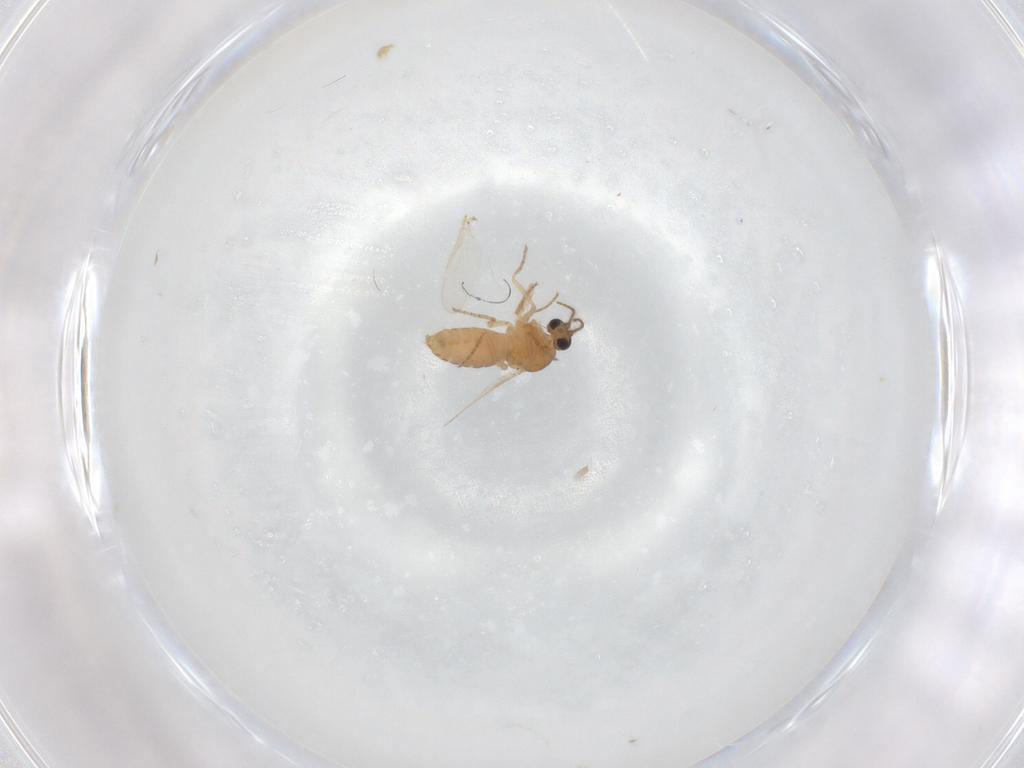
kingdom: Animalia
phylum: Arthropoda
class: Insecta
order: Diptera
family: Ceratopogonidae
